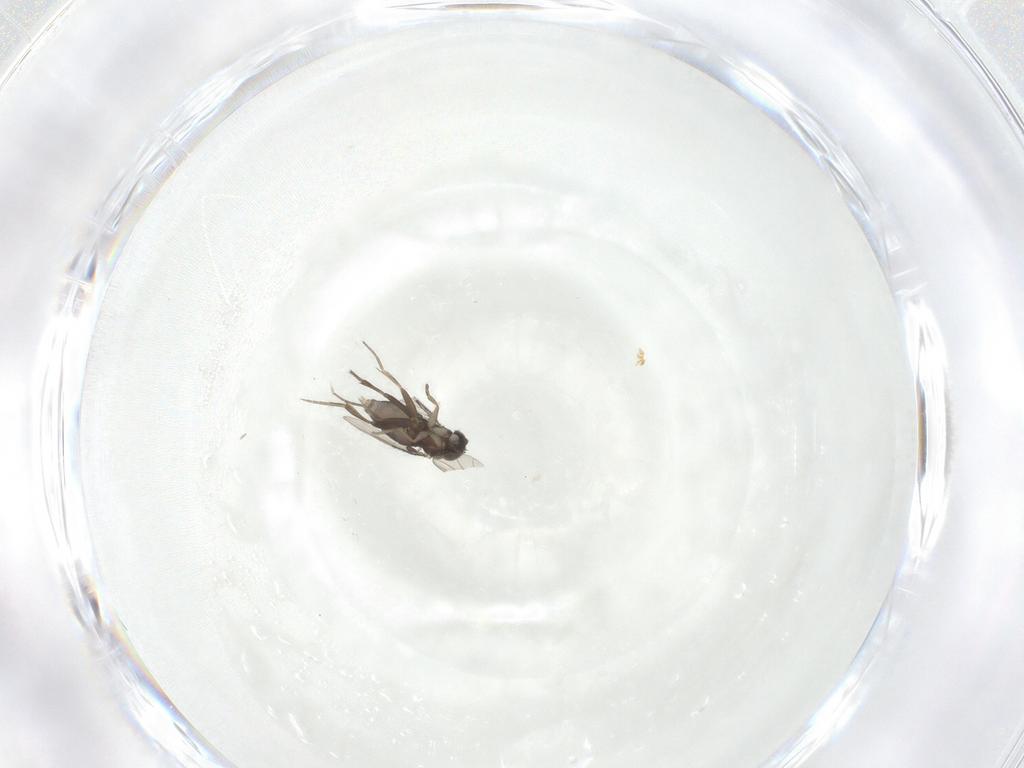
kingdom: Animalia
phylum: Arthropoda
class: Insecta
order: Diptera
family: Phoridae
